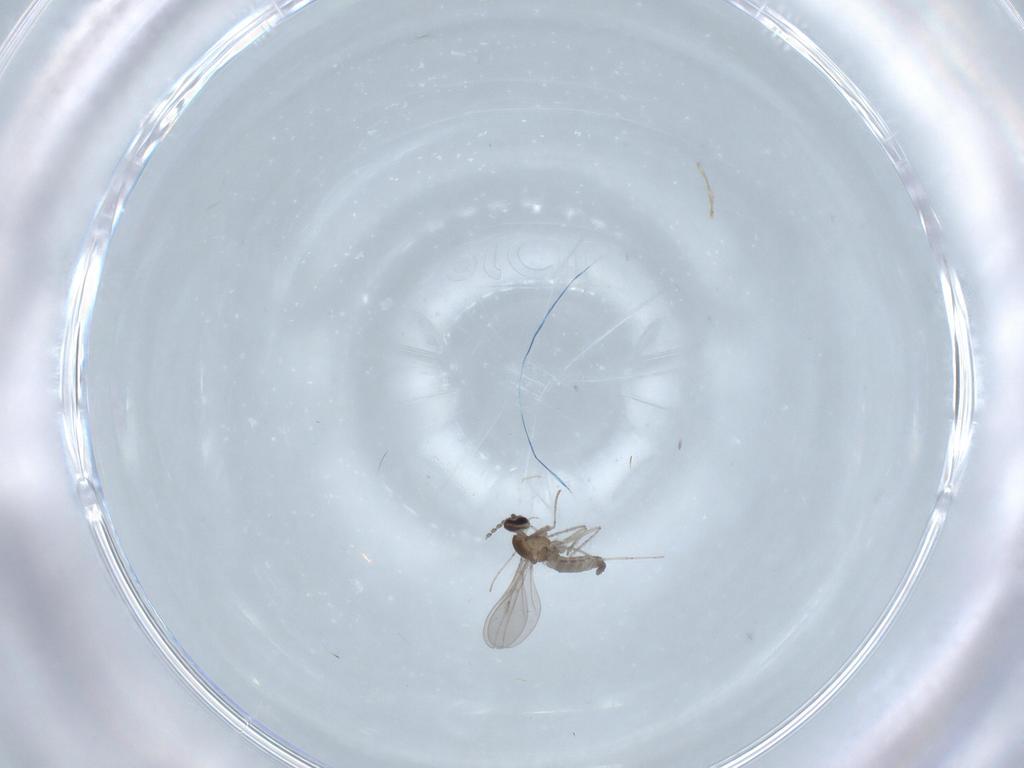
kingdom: Animalia
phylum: Arthropoda
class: Insecta
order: Diptera
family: Cecidomyiidae
